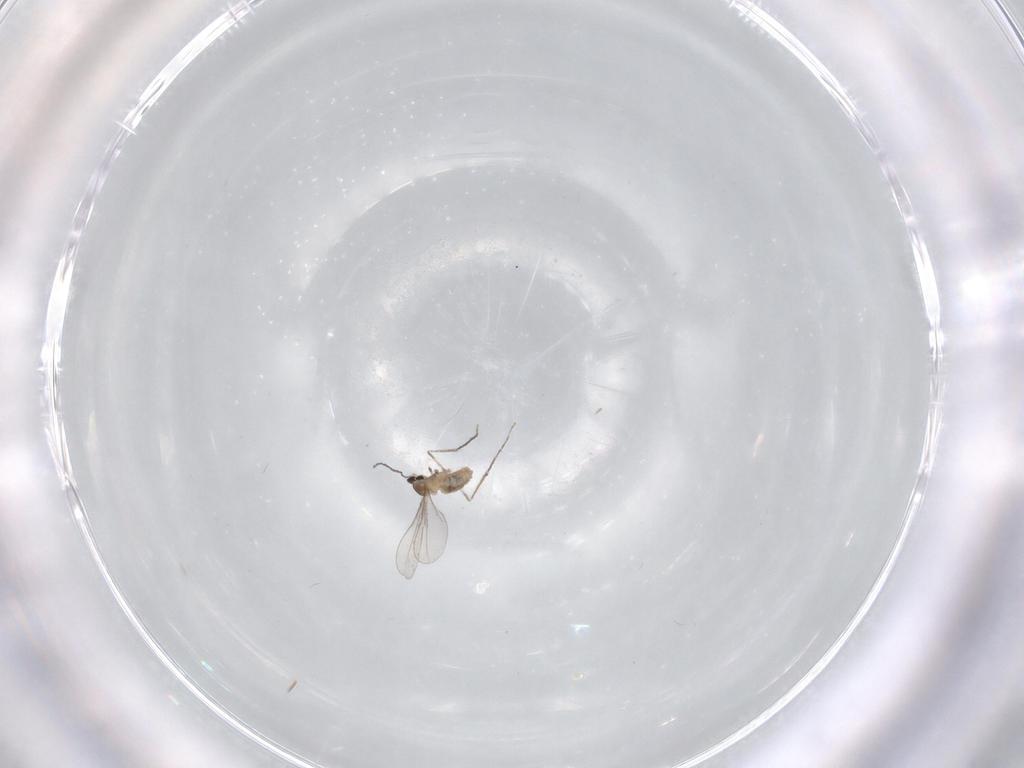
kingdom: Animalia
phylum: Arthropoda
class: Insecta
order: Diptera
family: Cecidomyiidae
